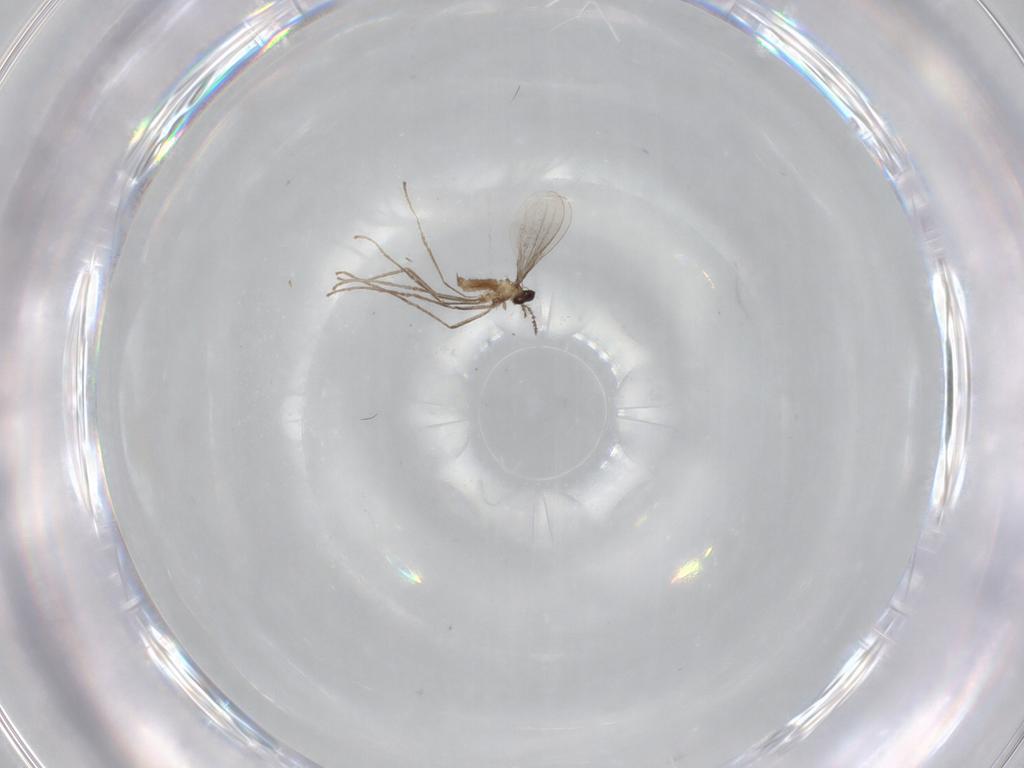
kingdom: Animalia
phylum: Arthropoda
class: Insecta
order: Diptera
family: Cecidomyiidae
